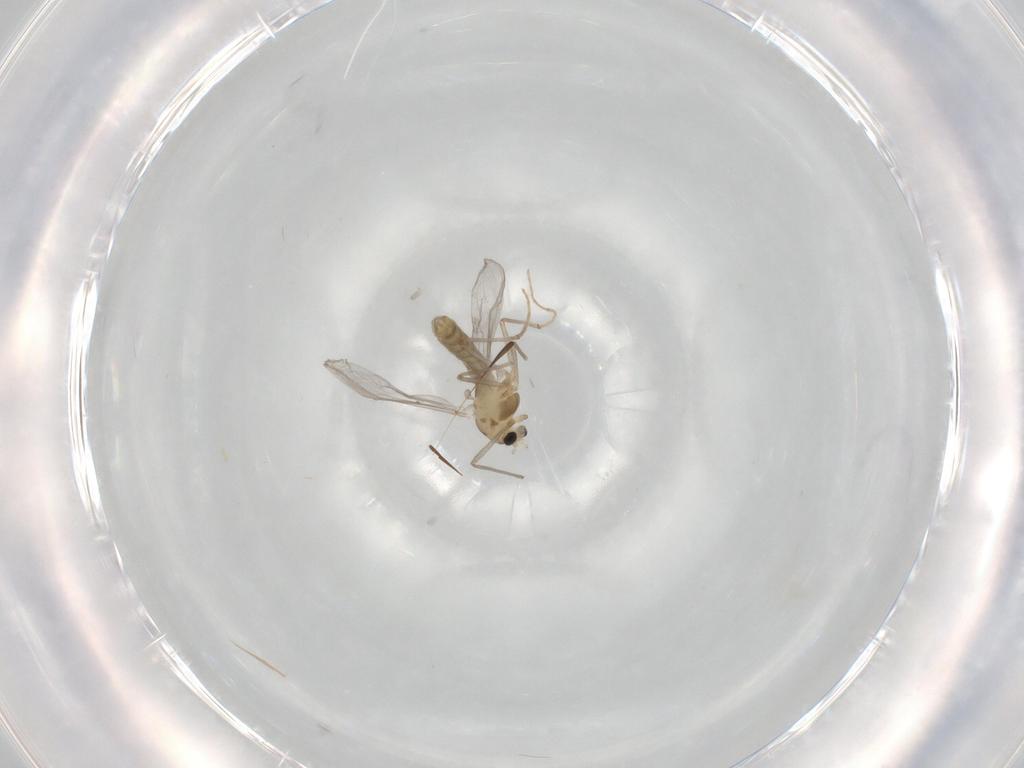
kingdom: Animalia
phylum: Arthropoda
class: Insecta
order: Diptera
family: Chironomidae
